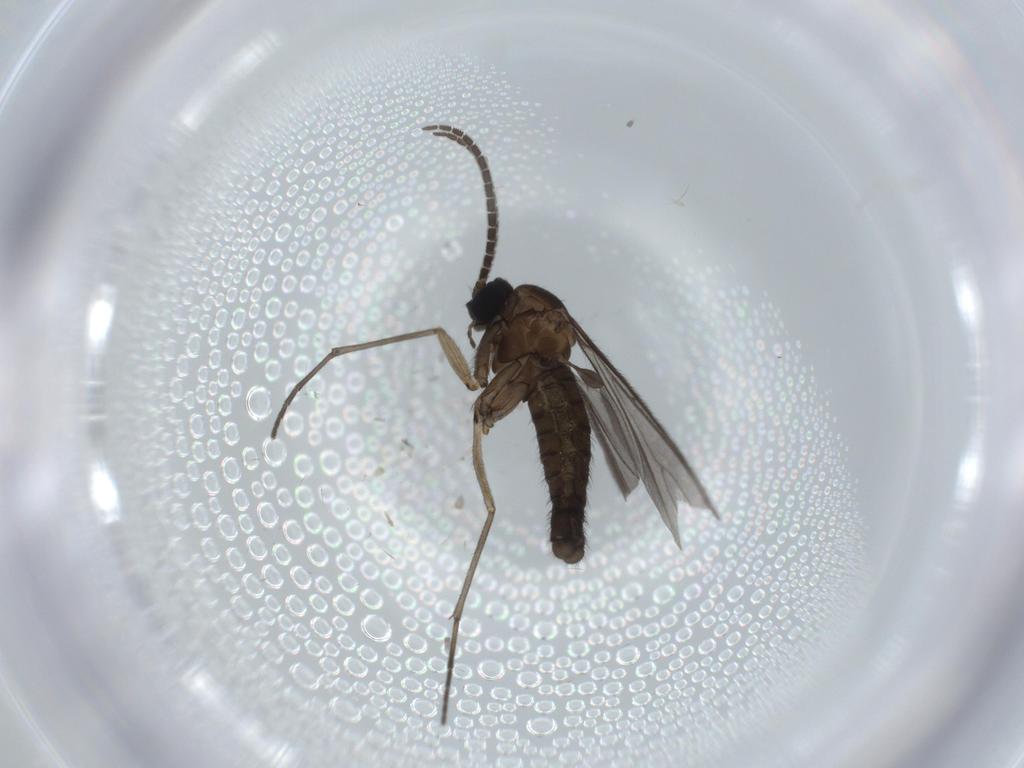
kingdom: Animalia
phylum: Arthropoda
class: Insecta
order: Diptera
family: Sciaridae
